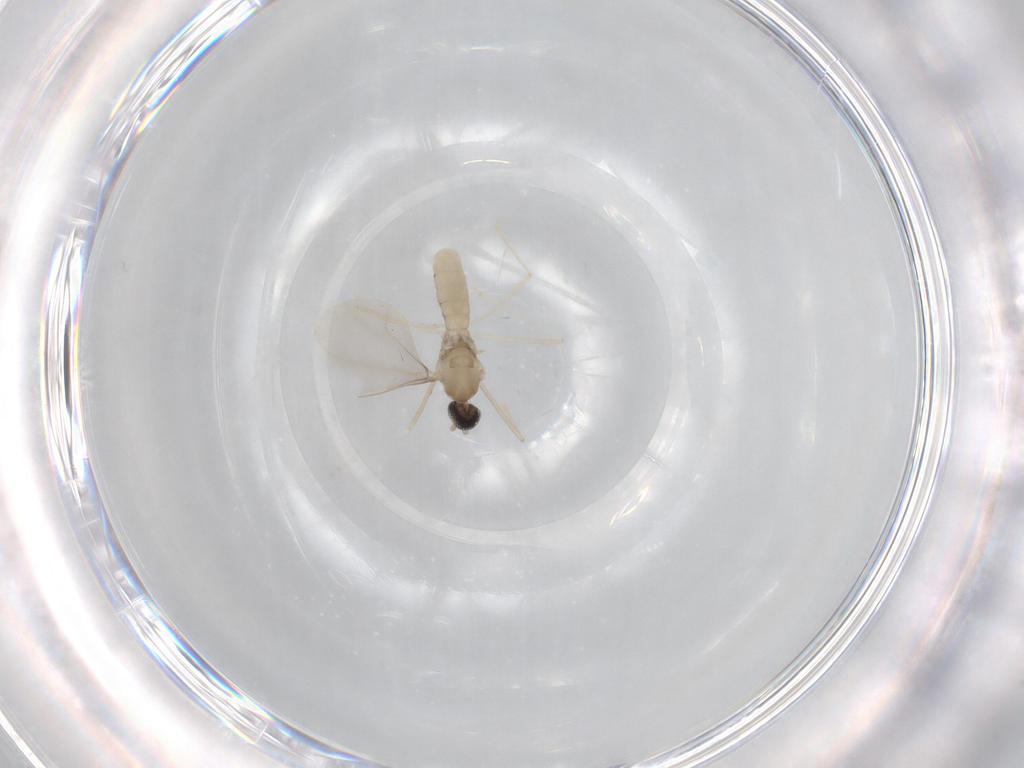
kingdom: Animalia
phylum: Arthropoda
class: Insecta
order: Diptera
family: Cecidomyiidae
